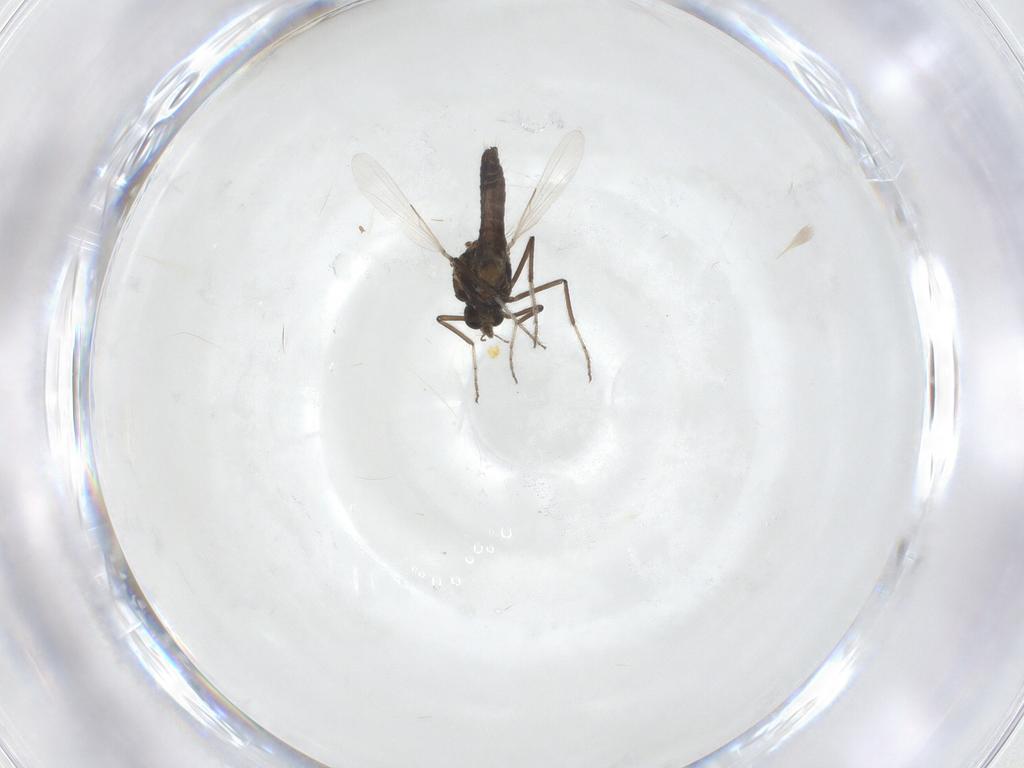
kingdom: Animalia
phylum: Arthropoda
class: Insecta
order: Diptera
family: Ceratopogonidae
